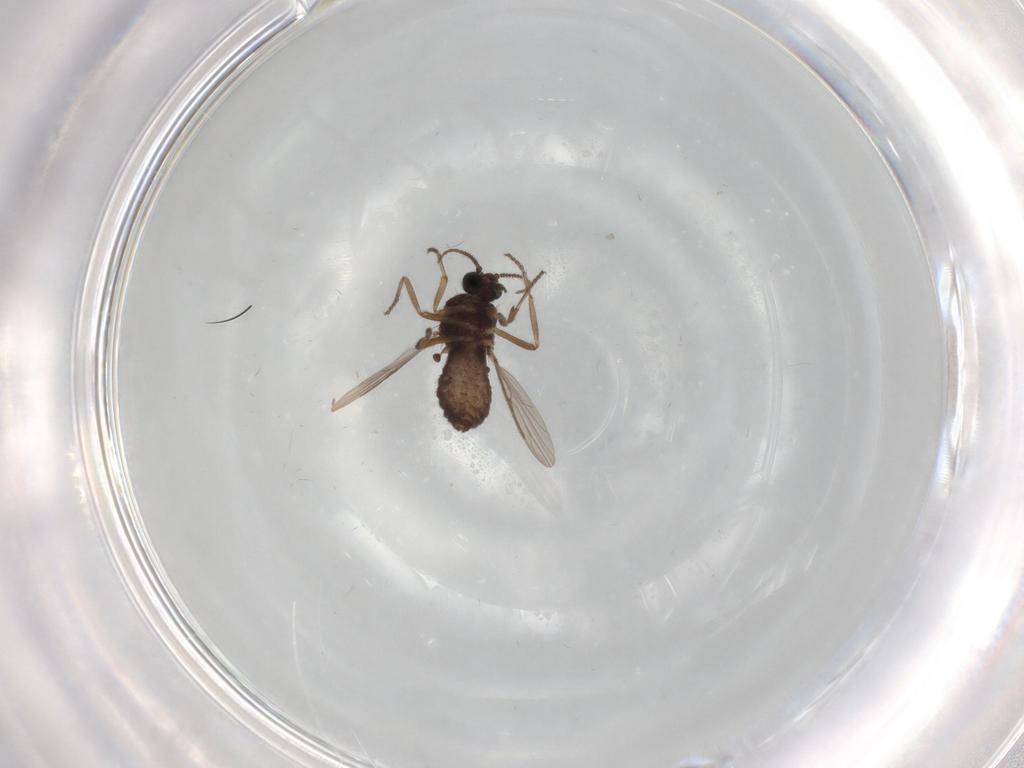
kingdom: Animalia
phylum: Arthropoda
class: Insecta
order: Diptera
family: Ceratopogonidae
